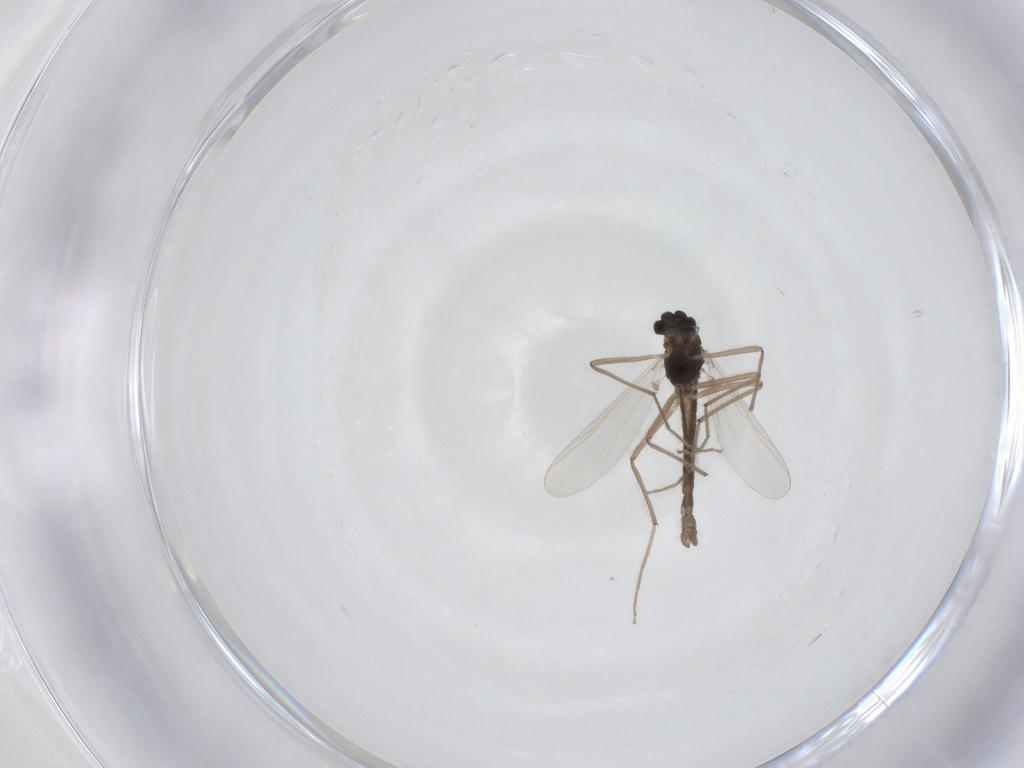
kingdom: Animalia
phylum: Arthropoda
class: Insecta
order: Diptera
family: Chironomidae
